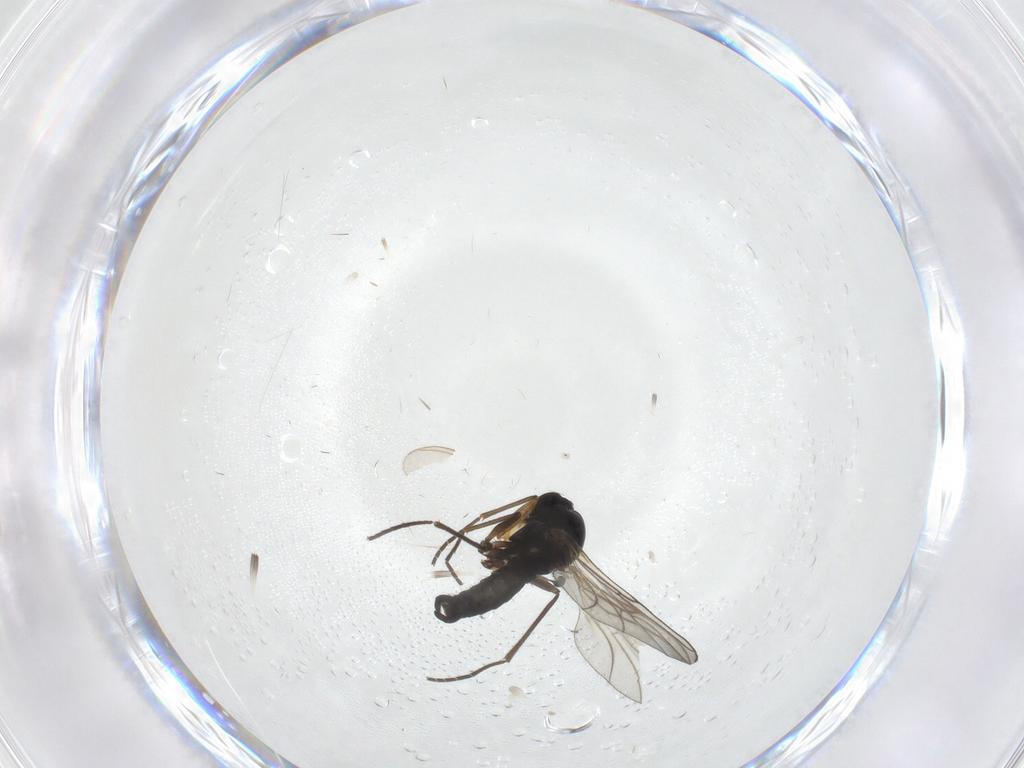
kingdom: Animalia
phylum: Arthropoda
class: Insecta
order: Diptera
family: Sciaridae
